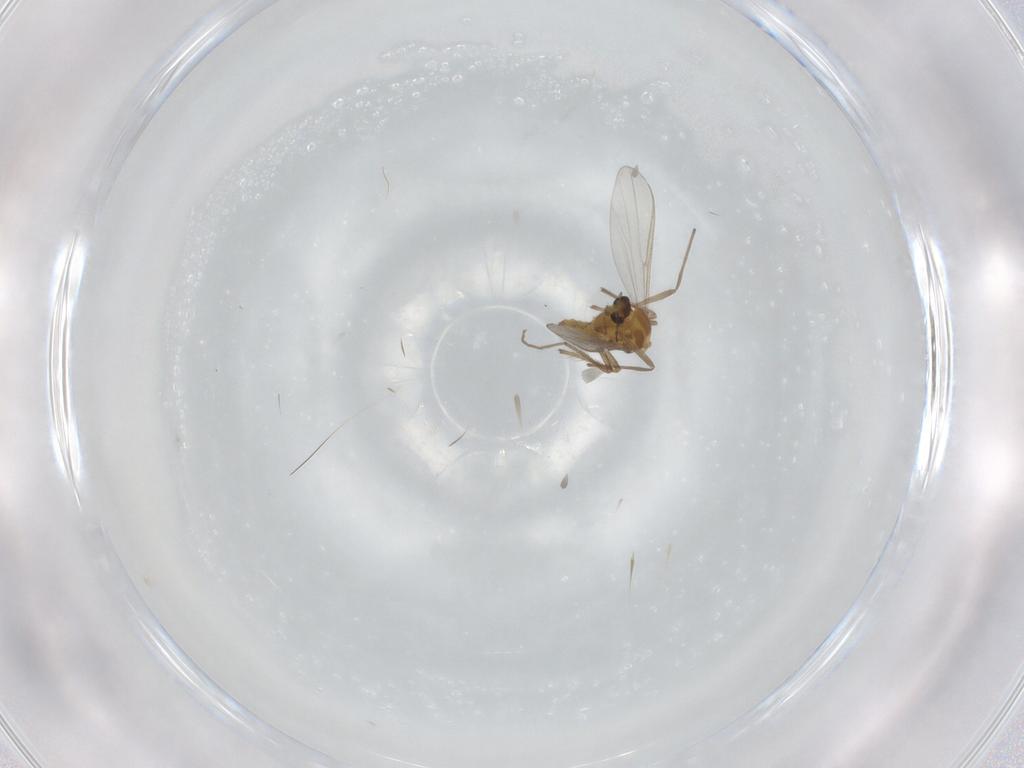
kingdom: Animalia
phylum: Arthropoda
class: Insecta
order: Diptera
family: Chironomidae
